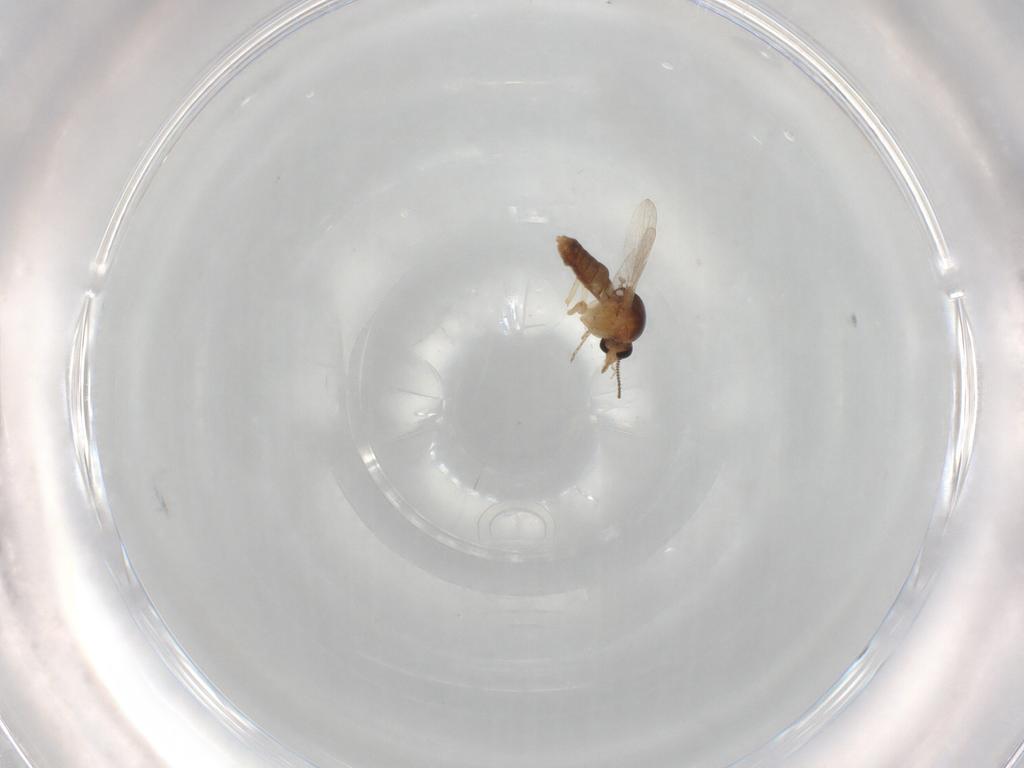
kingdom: Animalia
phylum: Arthropoda
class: Insecta
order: Diptera
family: Ceratopogonidae
